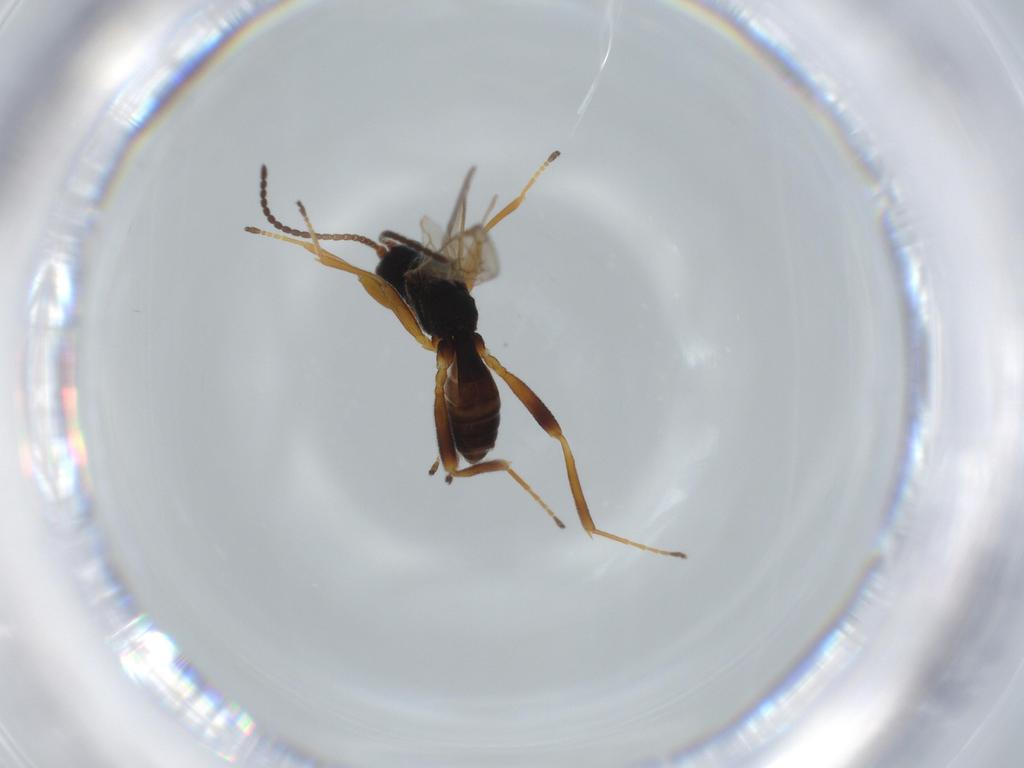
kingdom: Animalia
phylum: Arthropoda
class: Insecta
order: Hymenoptera
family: Braconidae
